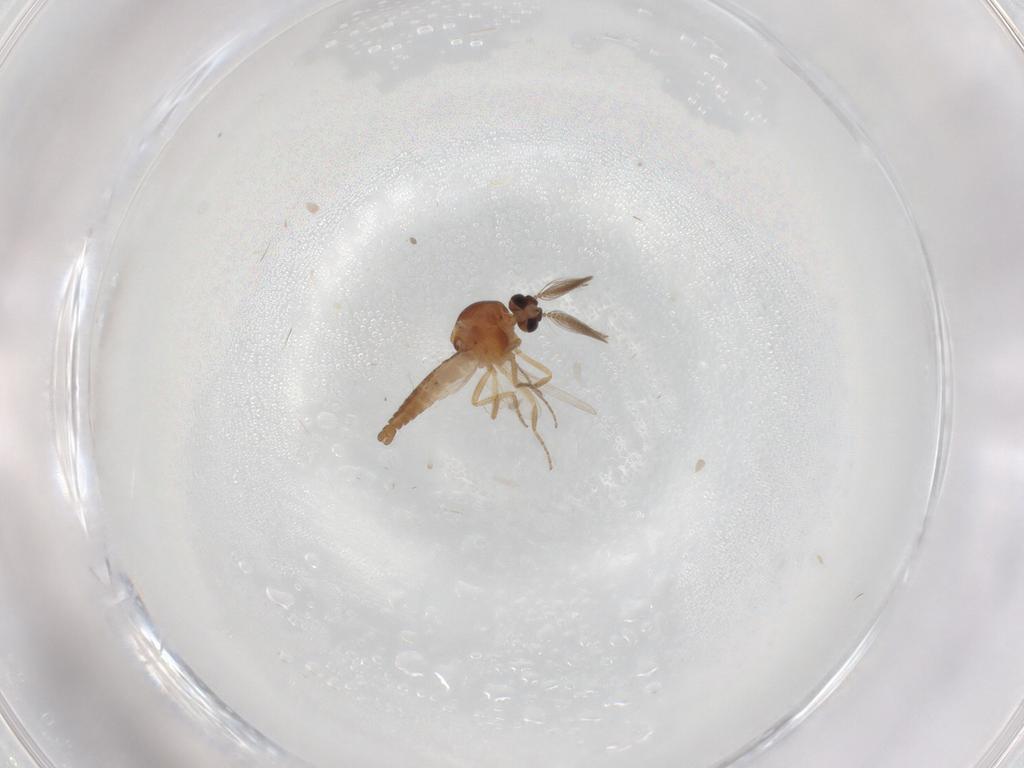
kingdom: Animalia
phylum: Arthropoda
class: Insecta
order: Diptera
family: Ceratopogonidae
